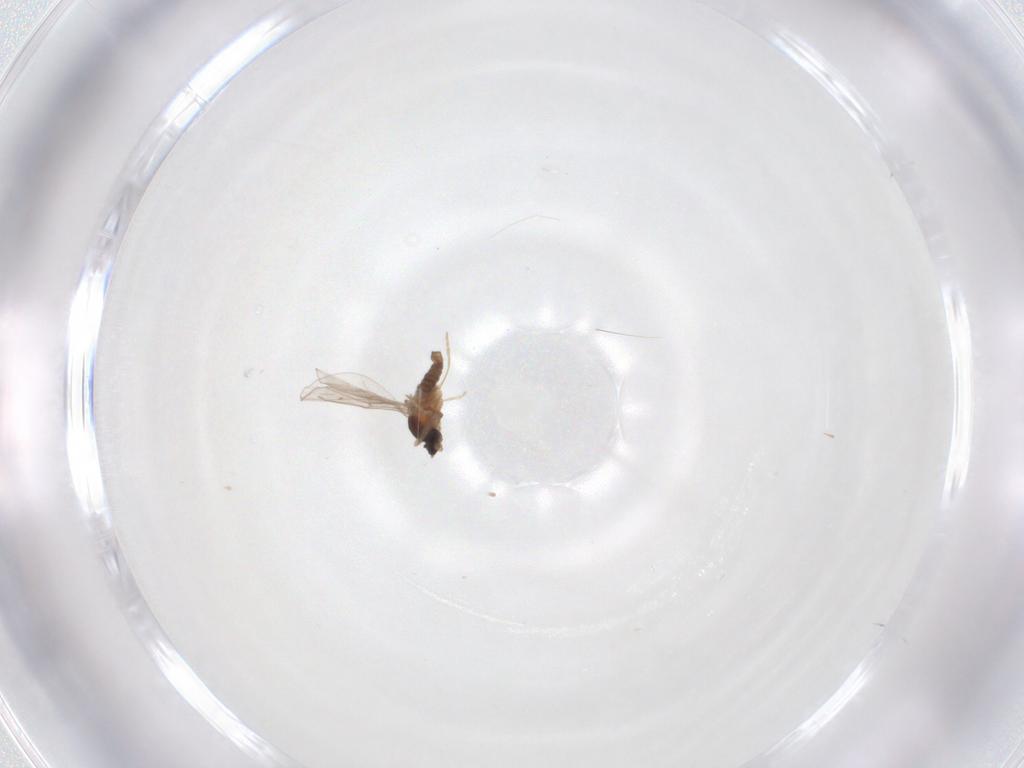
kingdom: Animalia
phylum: Arthropoda
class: Insecta
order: Diptera
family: Cecidomyiidae
